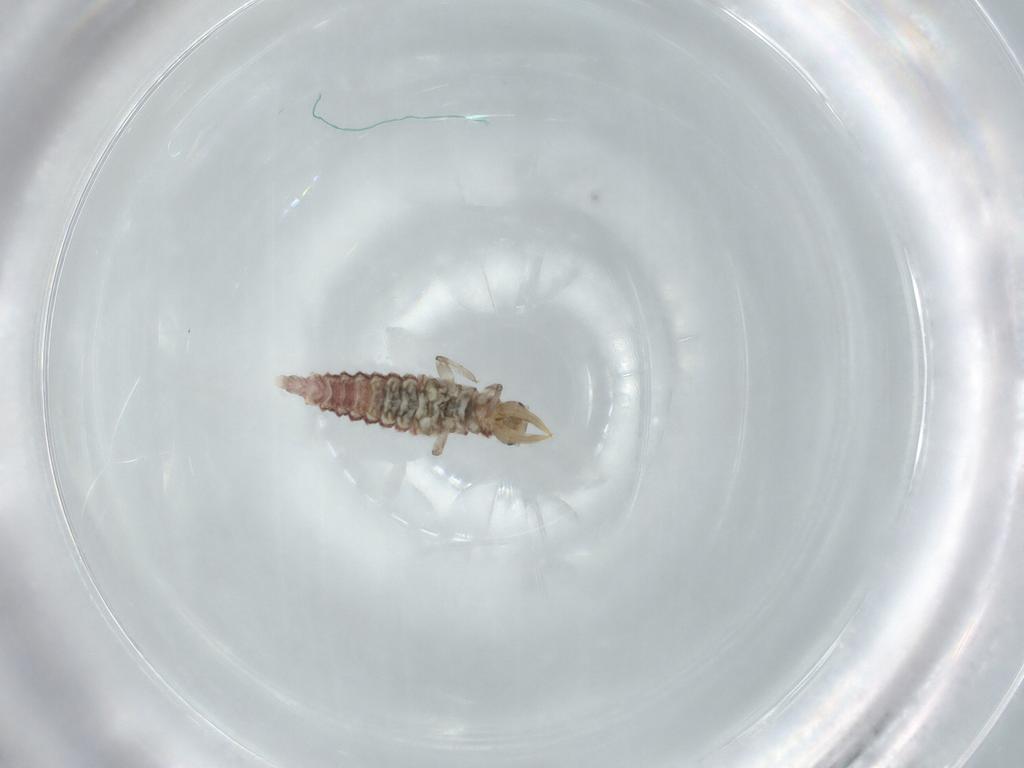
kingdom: Animalia
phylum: Arthropoda
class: Insecta
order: Neuroptera
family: Hemerobiidae
